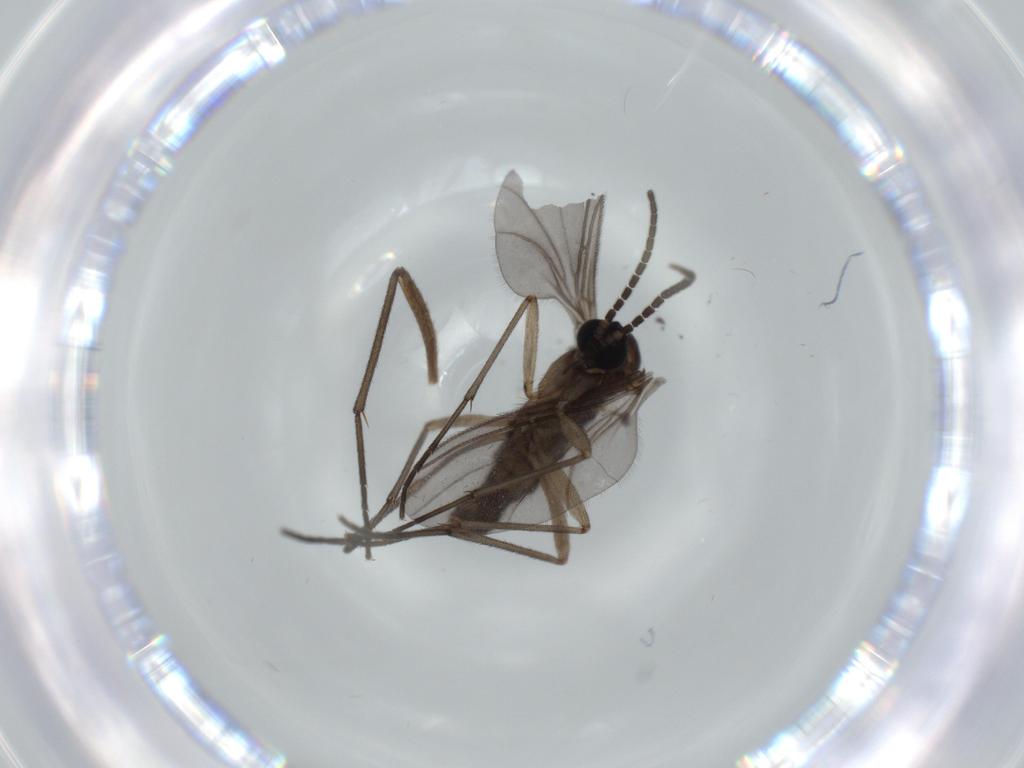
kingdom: Animalia
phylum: Arthropoda
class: Insecta
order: Diptera
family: Sciaridae
